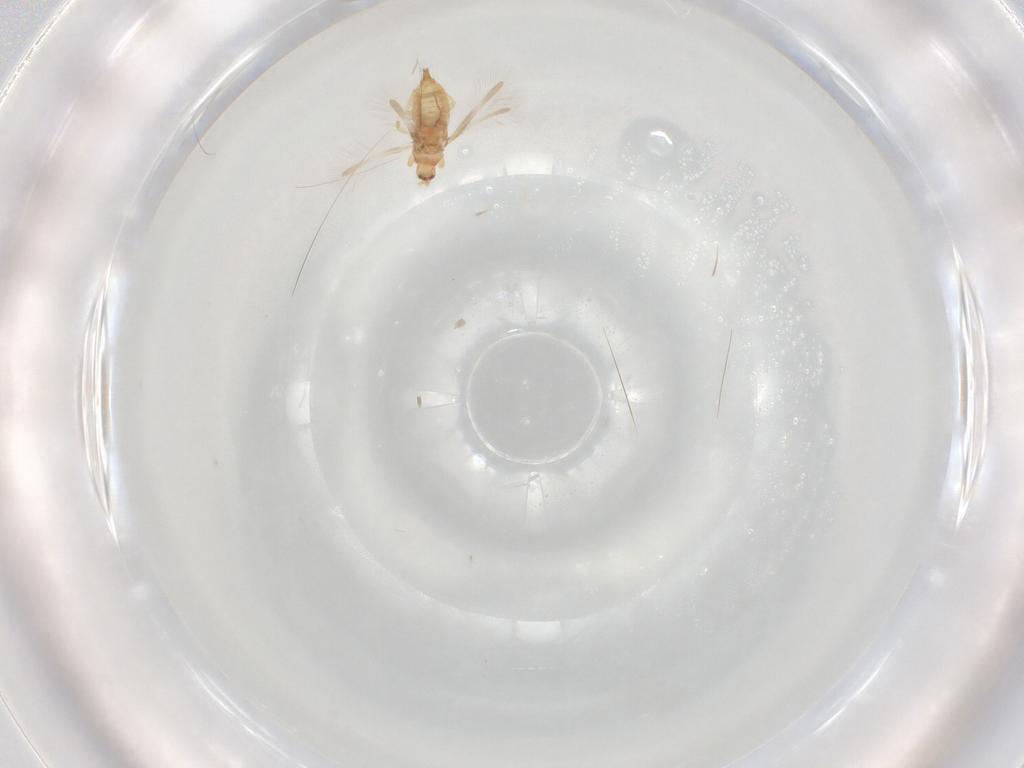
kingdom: Animalia
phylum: Arthropoda
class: Insecta
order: Thysanoptera
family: Phlaeothripidae
